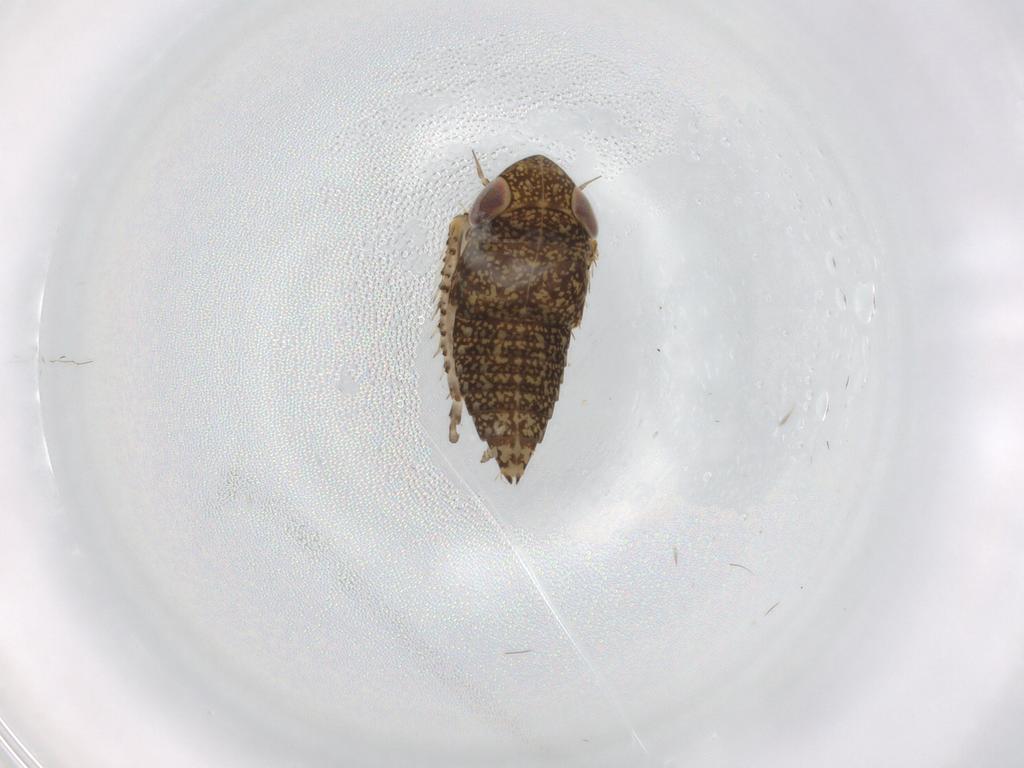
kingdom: Animalia
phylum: Arthropoda
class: Insecta
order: Hemiptera
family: Cicadellidae
